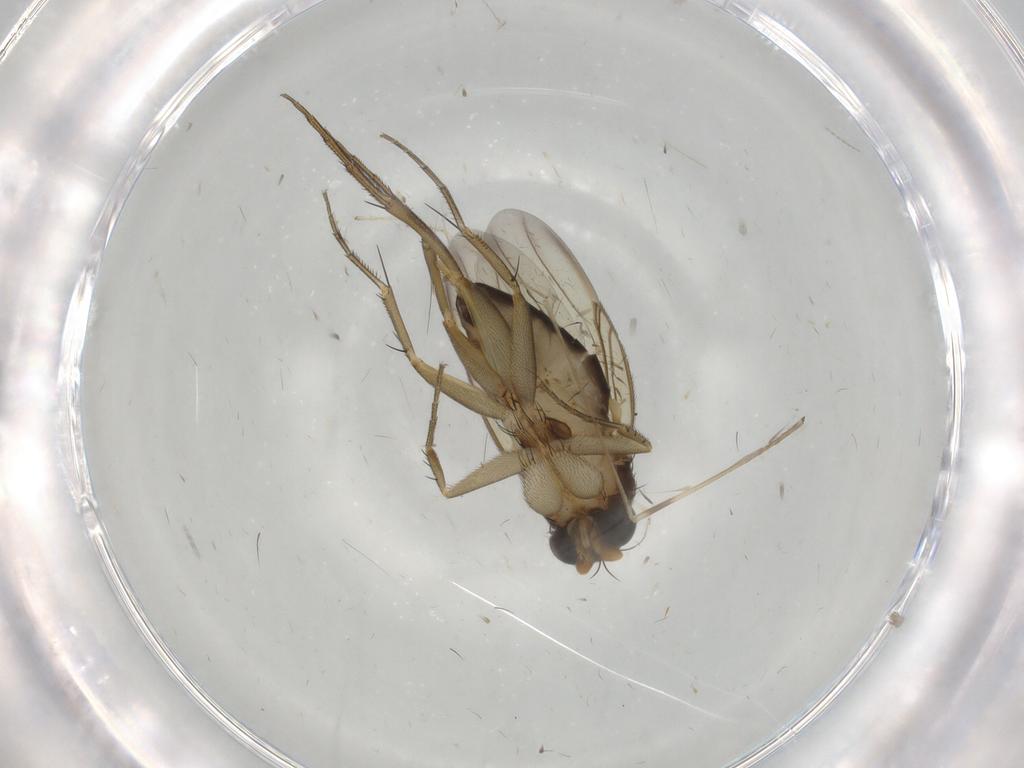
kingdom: Animalia
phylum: Arthropoda
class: Insecta
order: Diptera
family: Phoridae
